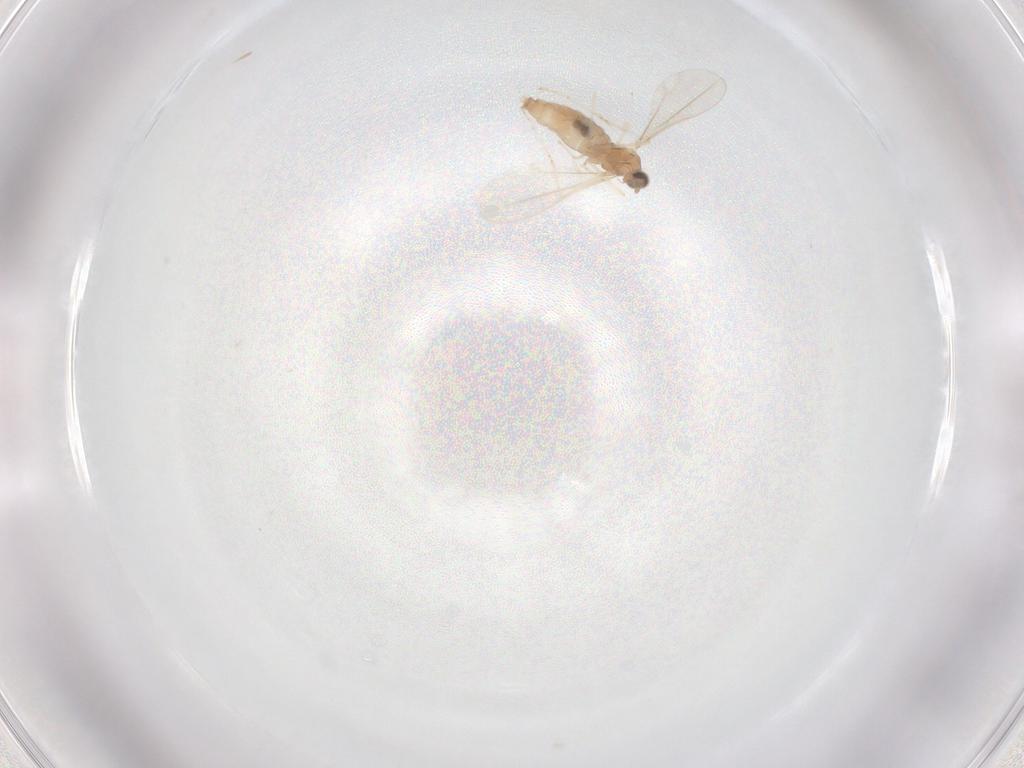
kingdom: Animalia
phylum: Arthropoda
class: Insecta
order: Diptera
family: Cecidomyiidae
